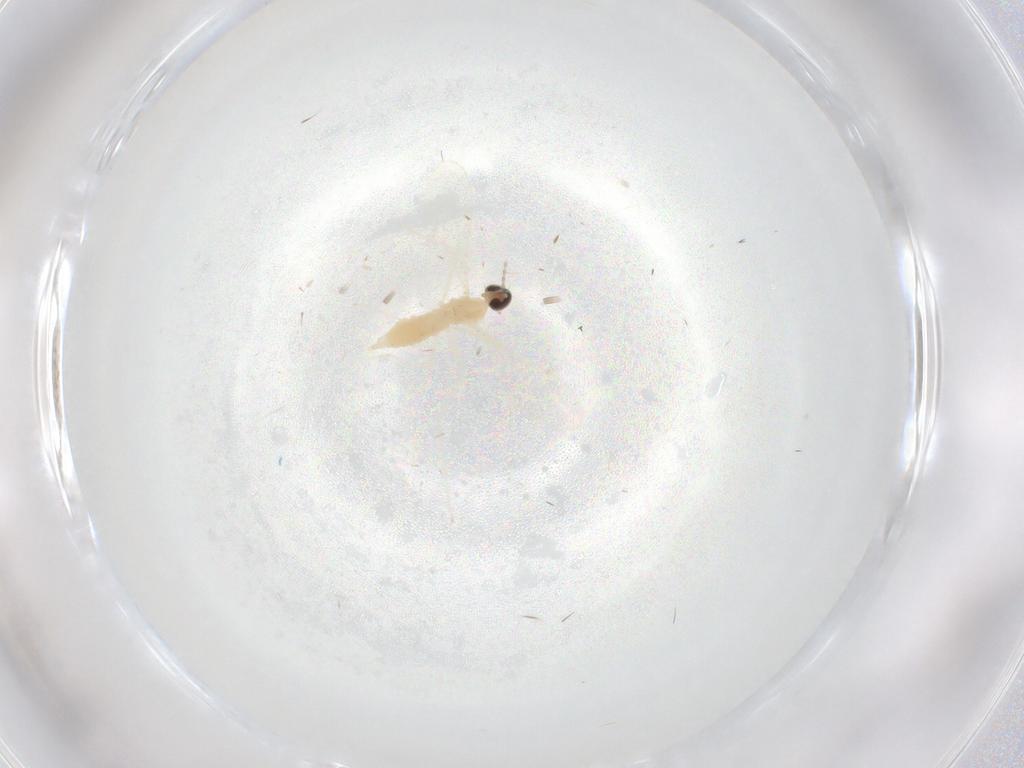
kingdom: Animalia
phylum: Arthropoda
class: Insecta
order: Diptera
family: Cecidomyiidae
